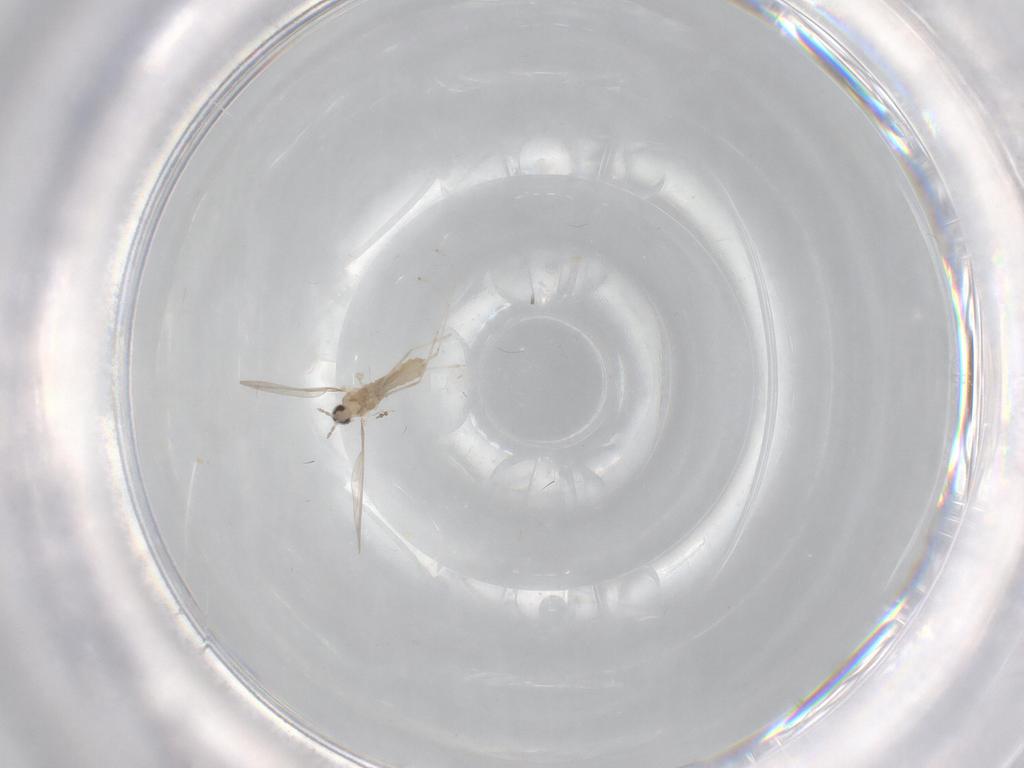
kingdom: Animalia
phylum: Arthropoda
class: Insecta
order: Diptera
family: Cecidomyiidae
